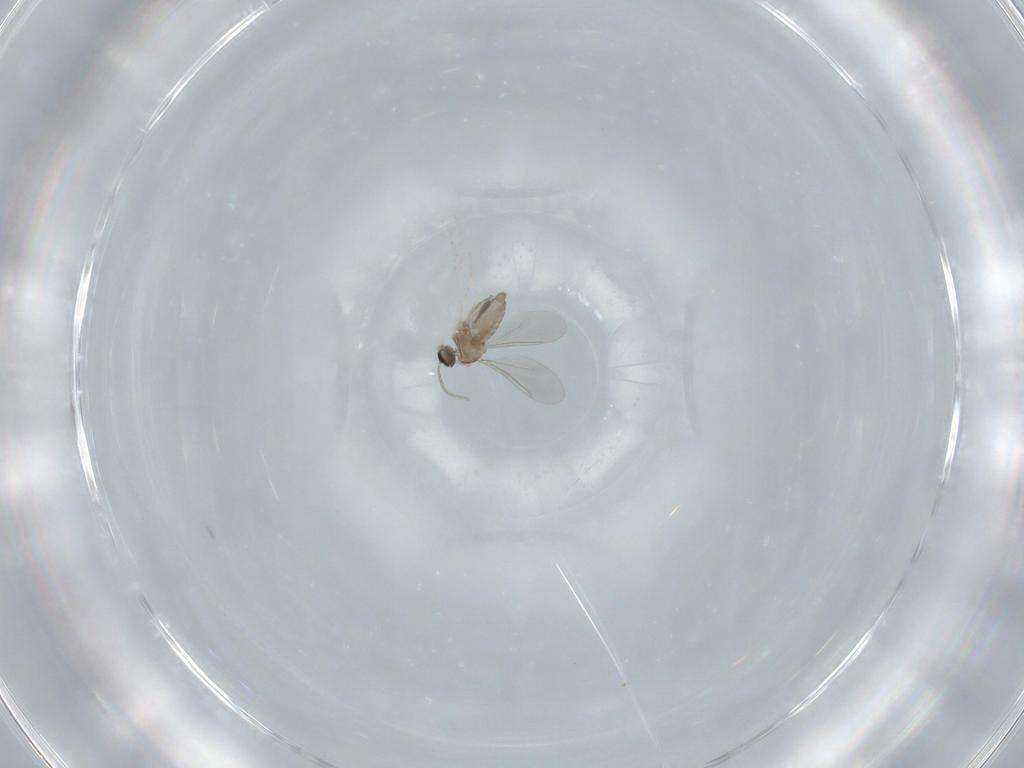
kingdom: Animalia
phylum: Arthropoda
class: Insecta
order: Diptera
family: Cecidomyiidae
